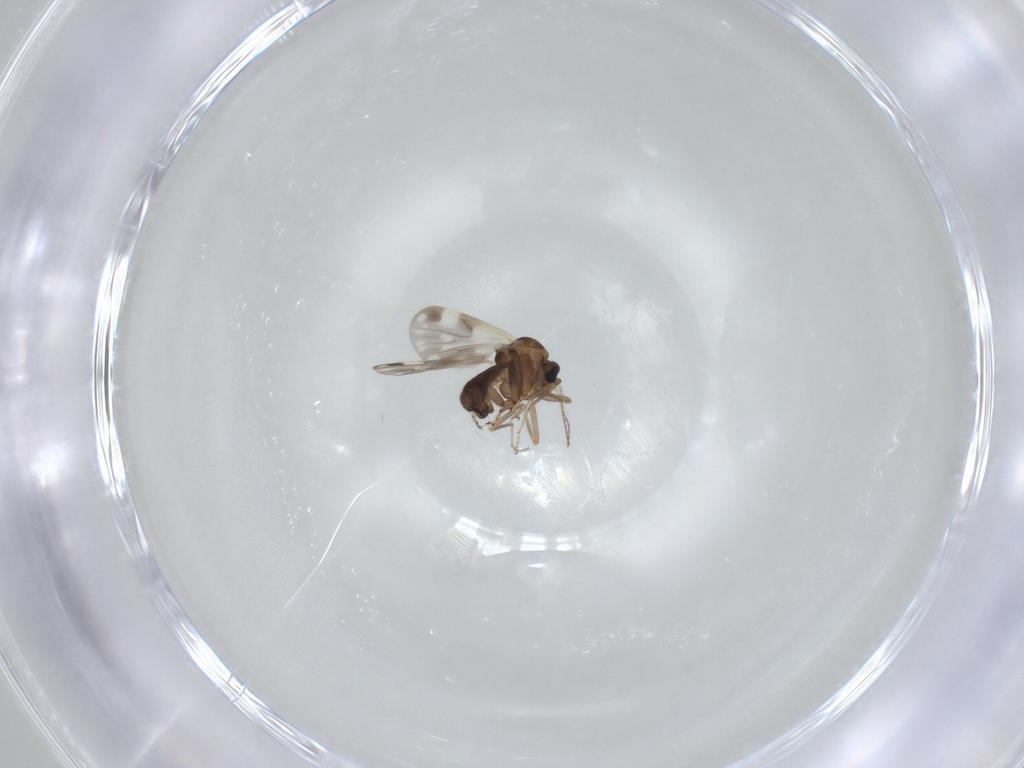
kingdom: Animalia
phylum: Arthropoda
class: Insecta
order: Diptera
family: Ceratopogonidae
